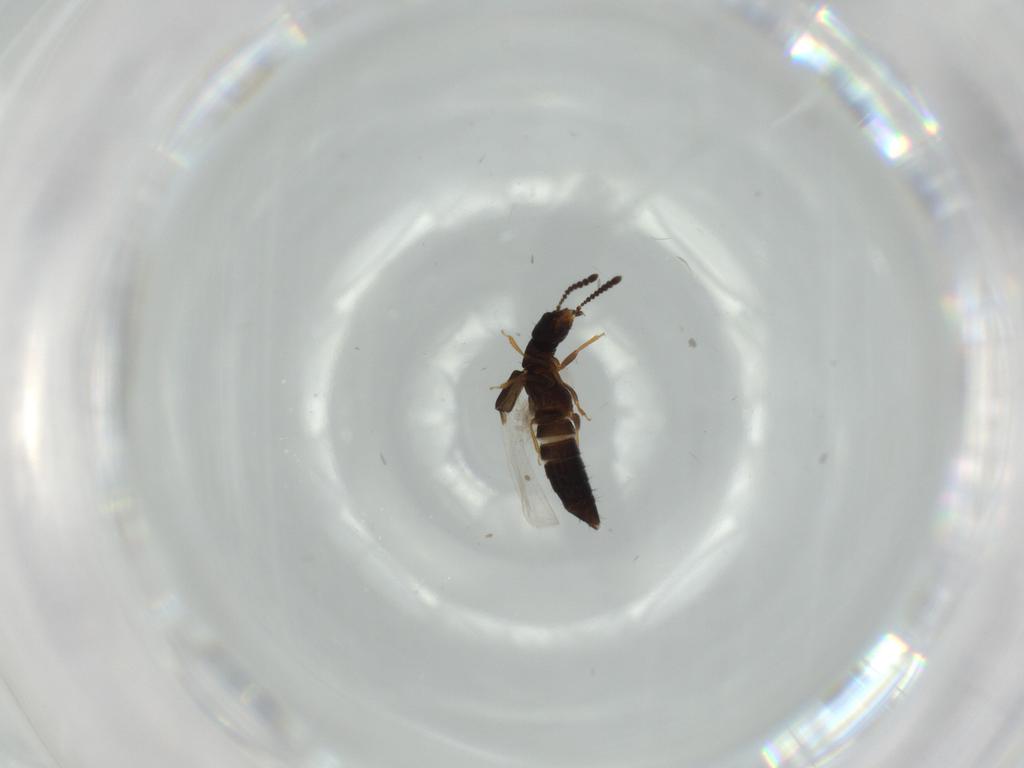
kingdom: Animalia
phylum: Arthropoda
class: Insecta
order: Coleoptera
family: Staphylinidae
